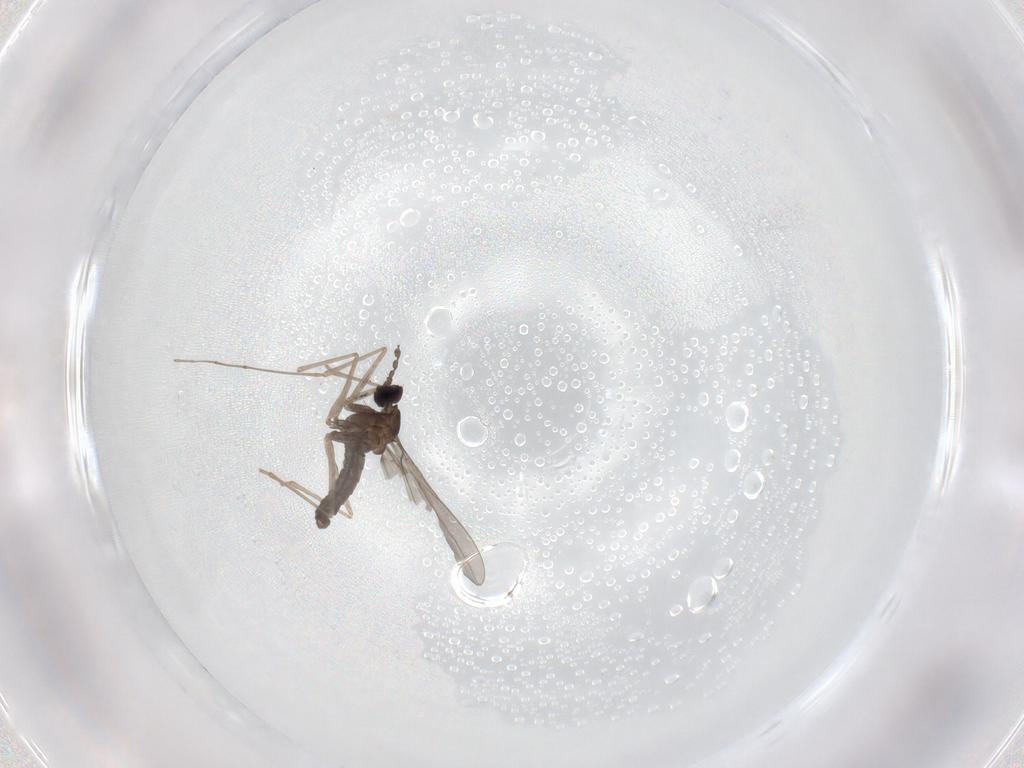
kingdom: Animalia
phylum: Arthropoda
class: Insecta
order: Diptera
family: Cecidomyiidae
